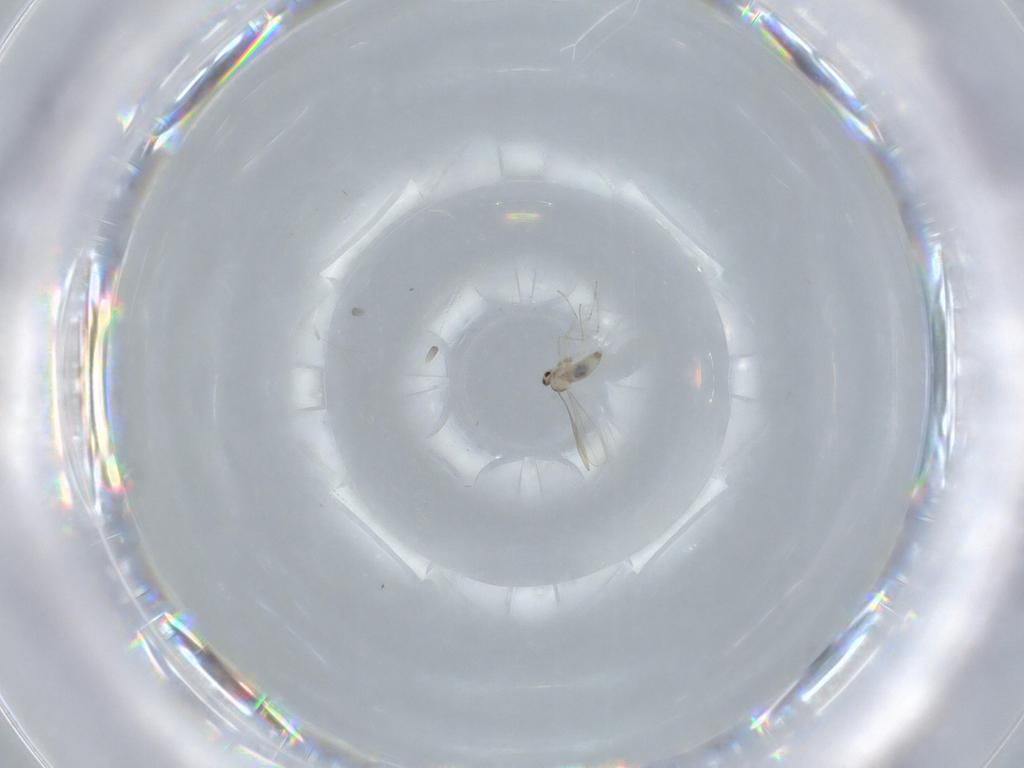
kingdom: Animalia
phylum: Arthropoda
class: Insecta
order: Diptera
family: Cecidomyiidae
